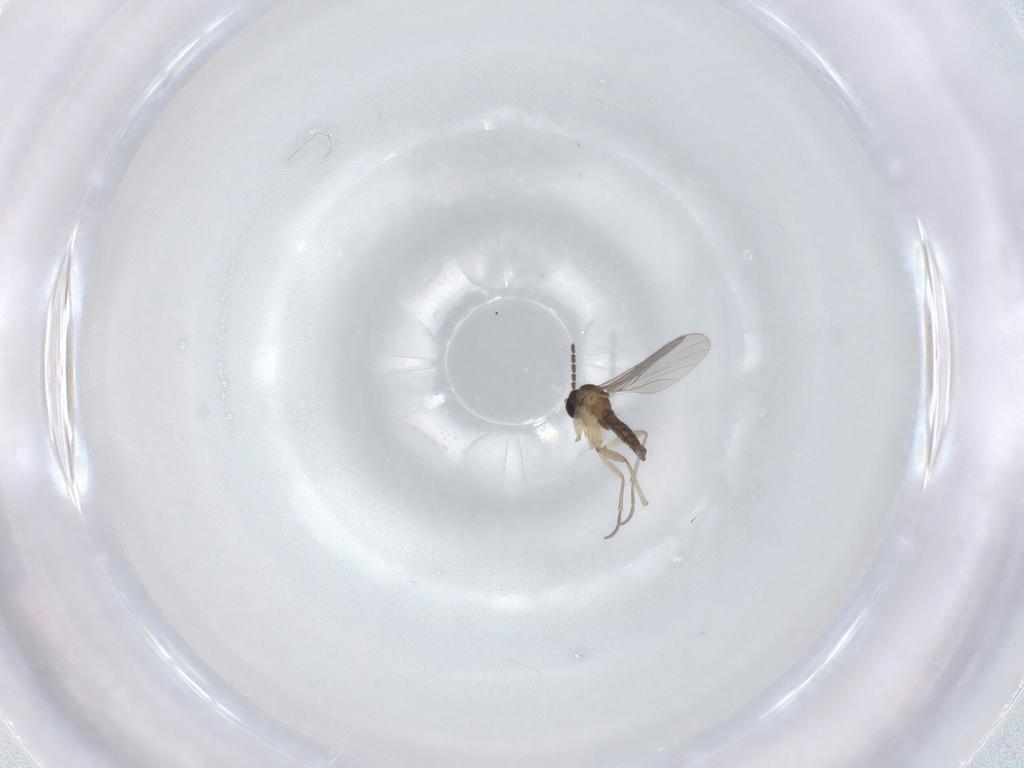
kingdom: Animalia
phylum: Arthropoda
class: Insecta
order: Diptera
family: Sciaridae
